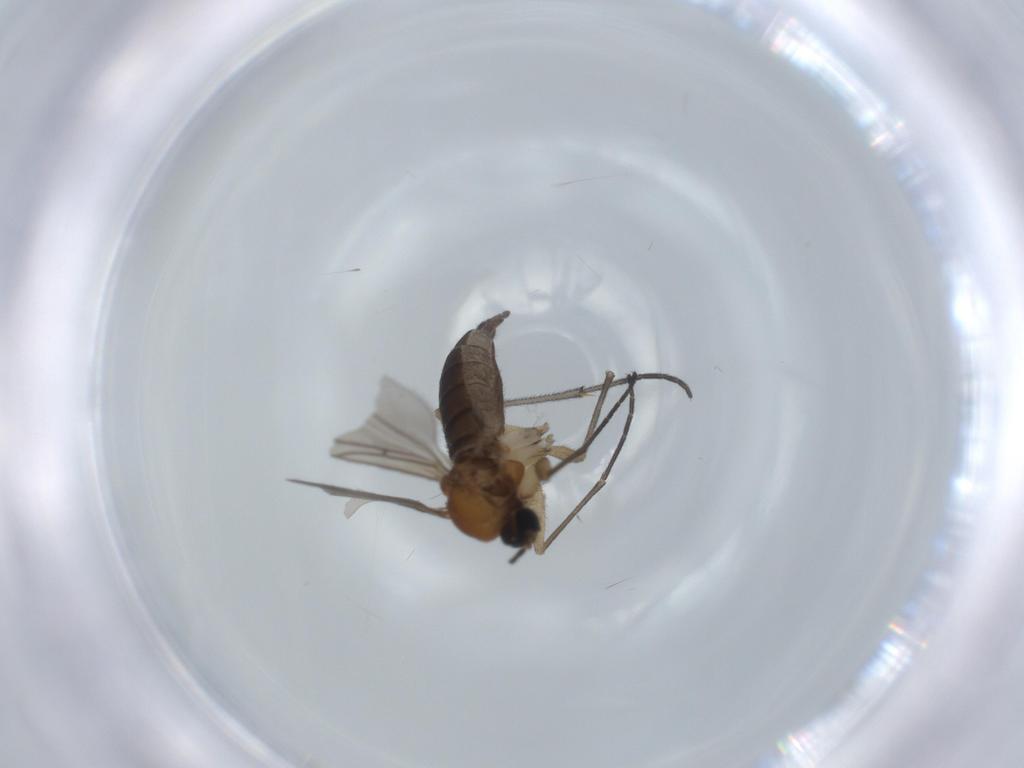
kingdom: Animalia
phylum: Arthropoda
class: Insecta
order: Diptera
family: Sciaridae
